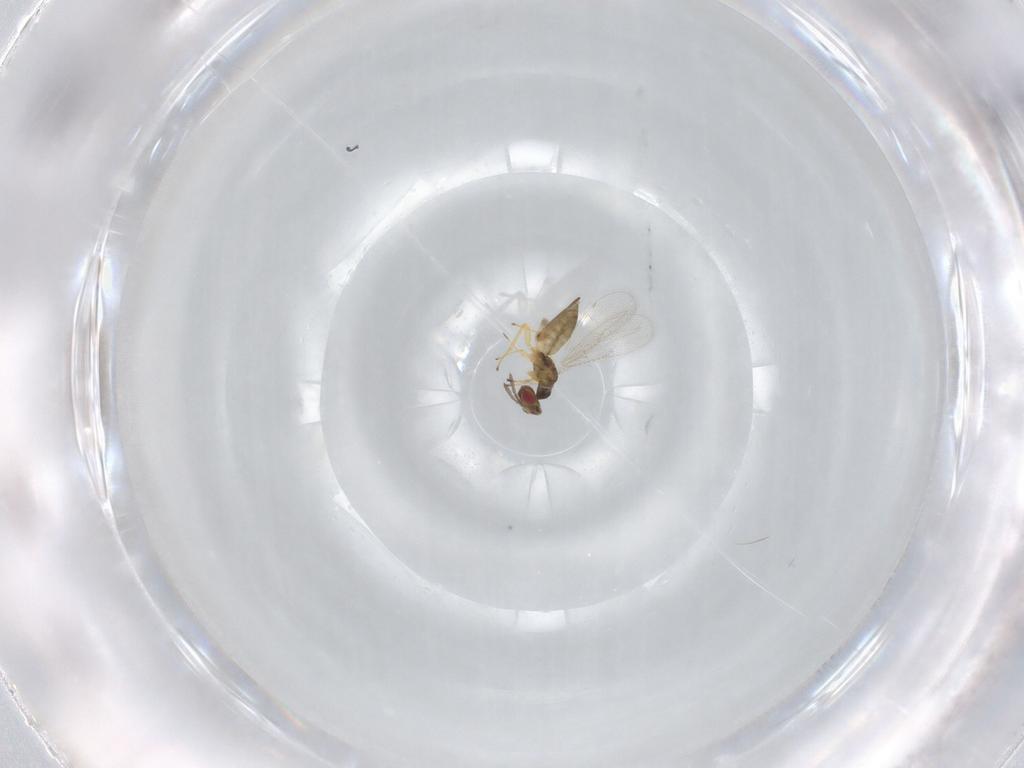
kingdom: Animalia
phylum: Arthropoda
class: Insecta
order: Hymenoptera
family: Eulophidae
